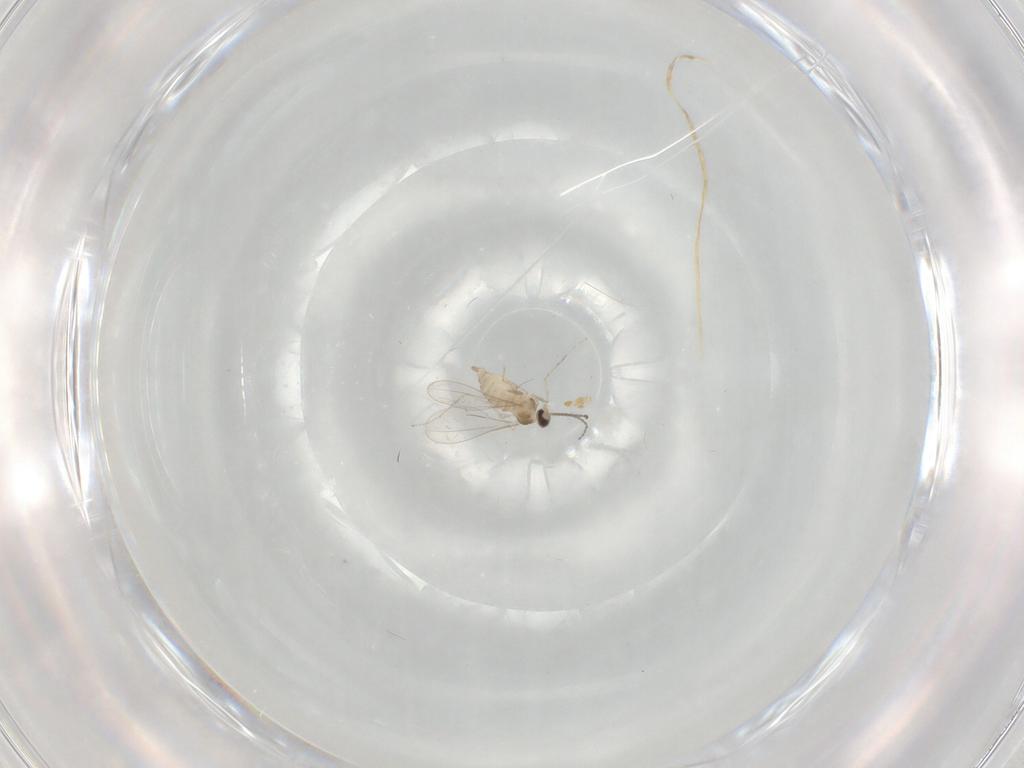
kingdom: Animalia
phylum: Arthropoda
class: Insecta
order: Diptera
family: Cecidomyiidae
